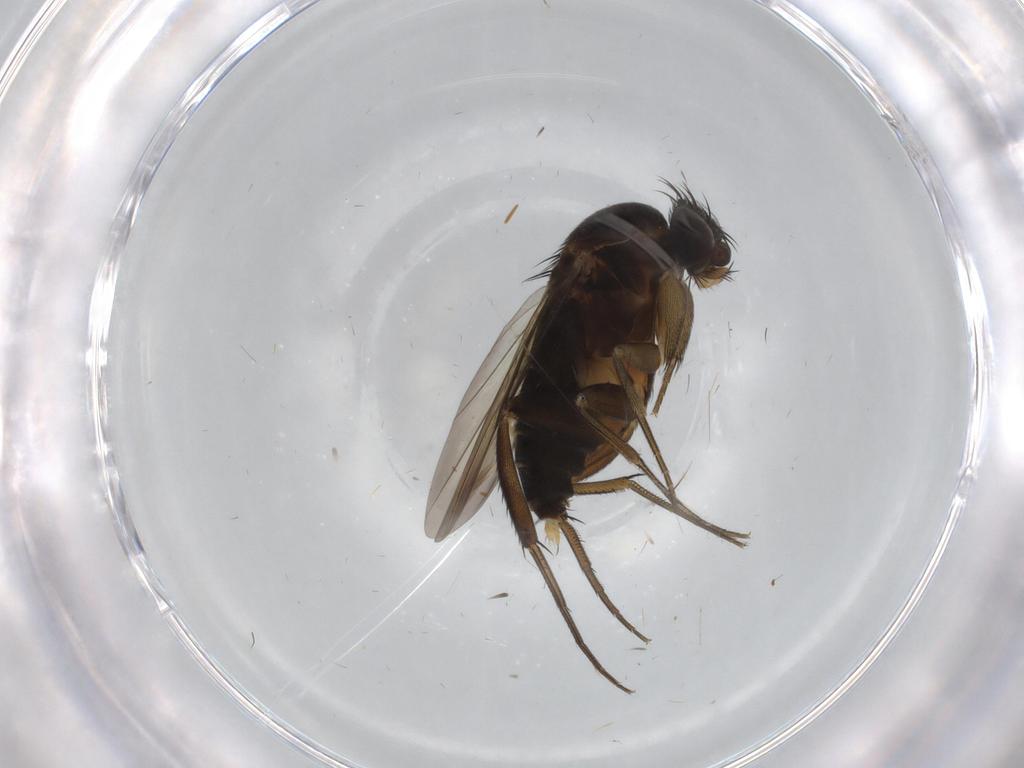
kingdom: Animalia
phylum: Arthropoda
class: Insecta
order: Diptera
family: Phoridae
